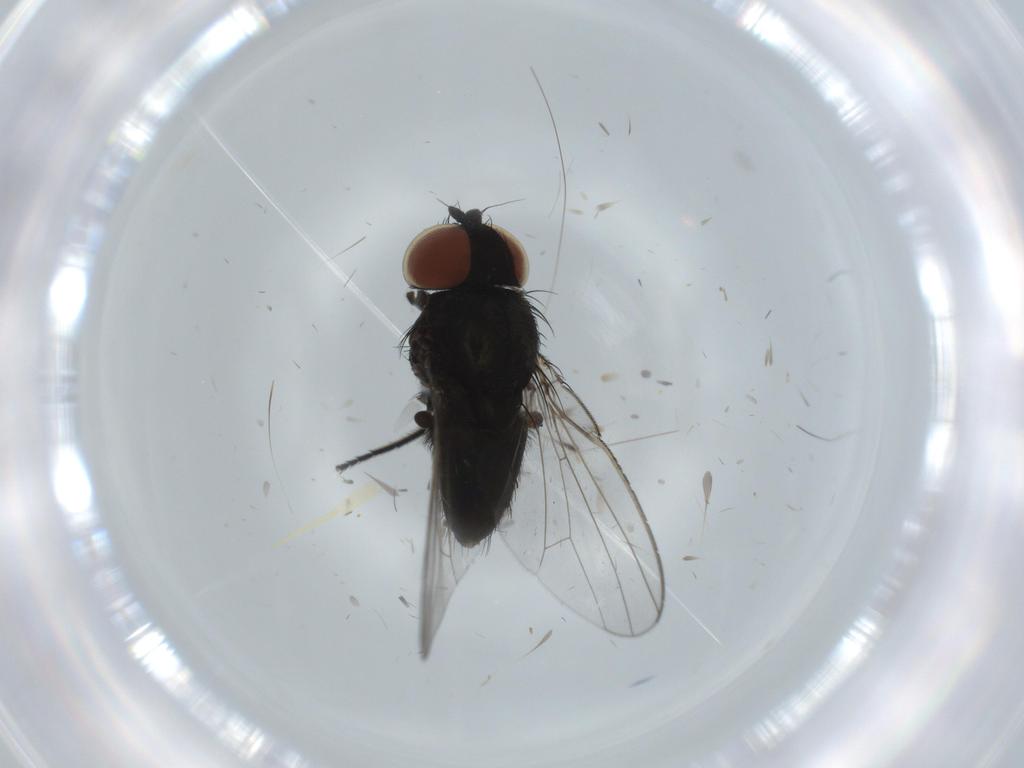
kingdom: Animalia
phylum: Arthropoda
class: Insecta
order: Diptera
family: Milichiidae
